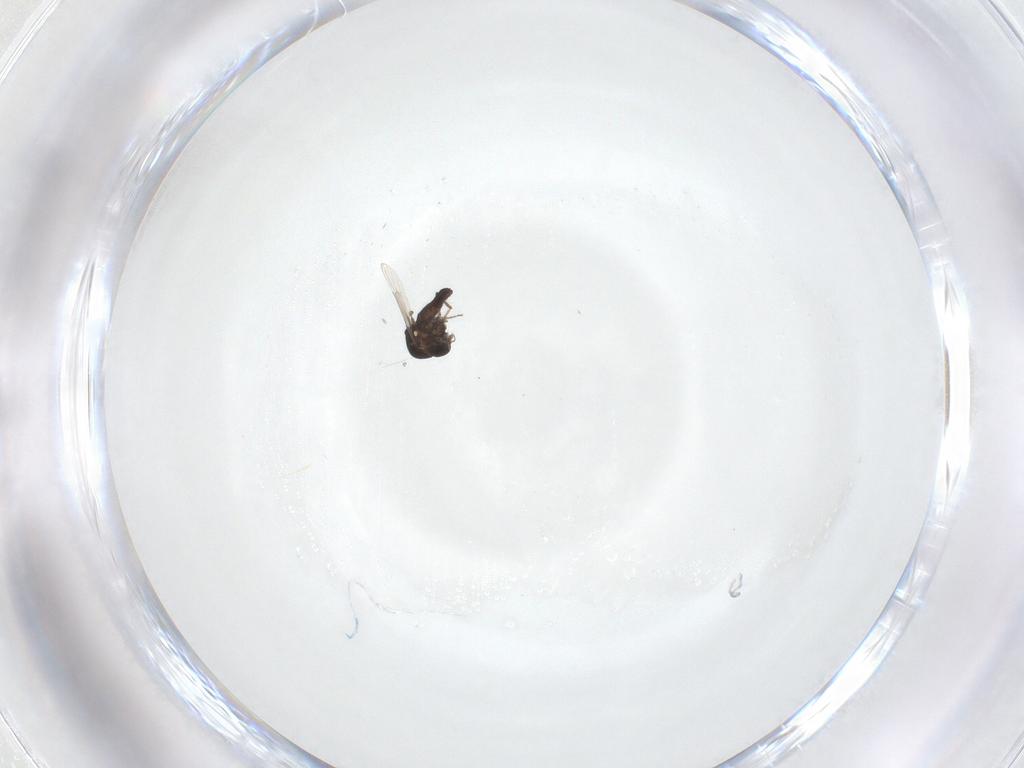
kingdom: Animalia
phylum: Arthropoda
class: Insecta
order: Diptera
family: Ceratopogonidae
